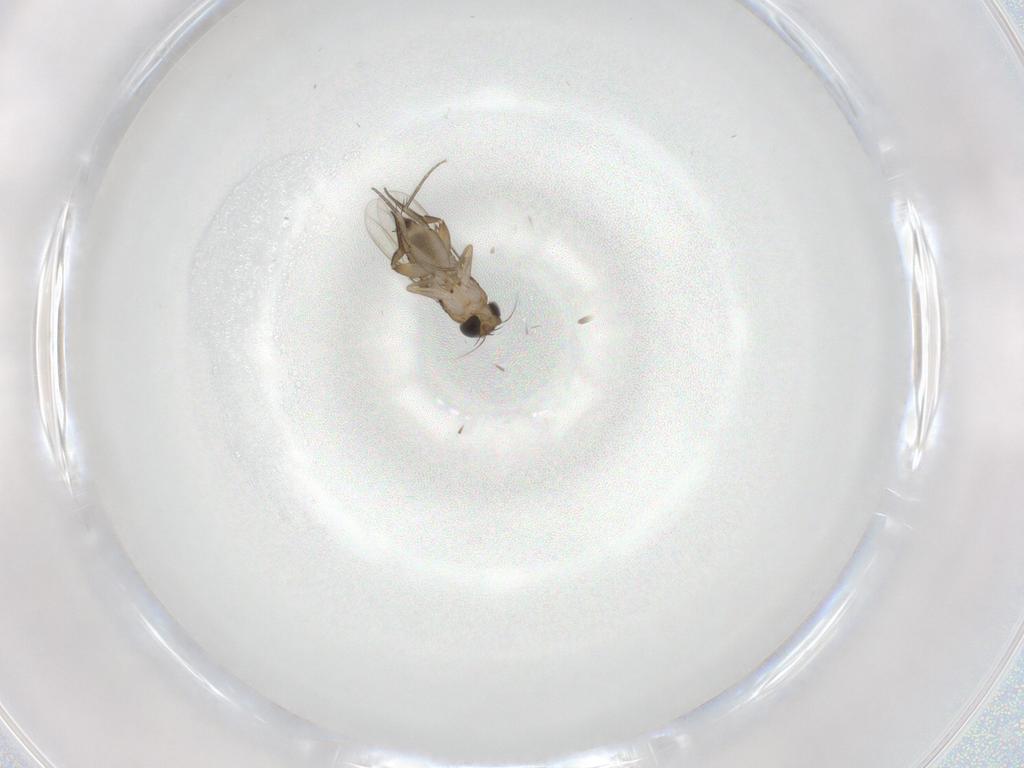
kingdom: Animalia
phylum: Arthropoda
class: Insecta
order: Diptera
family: Phoridae
